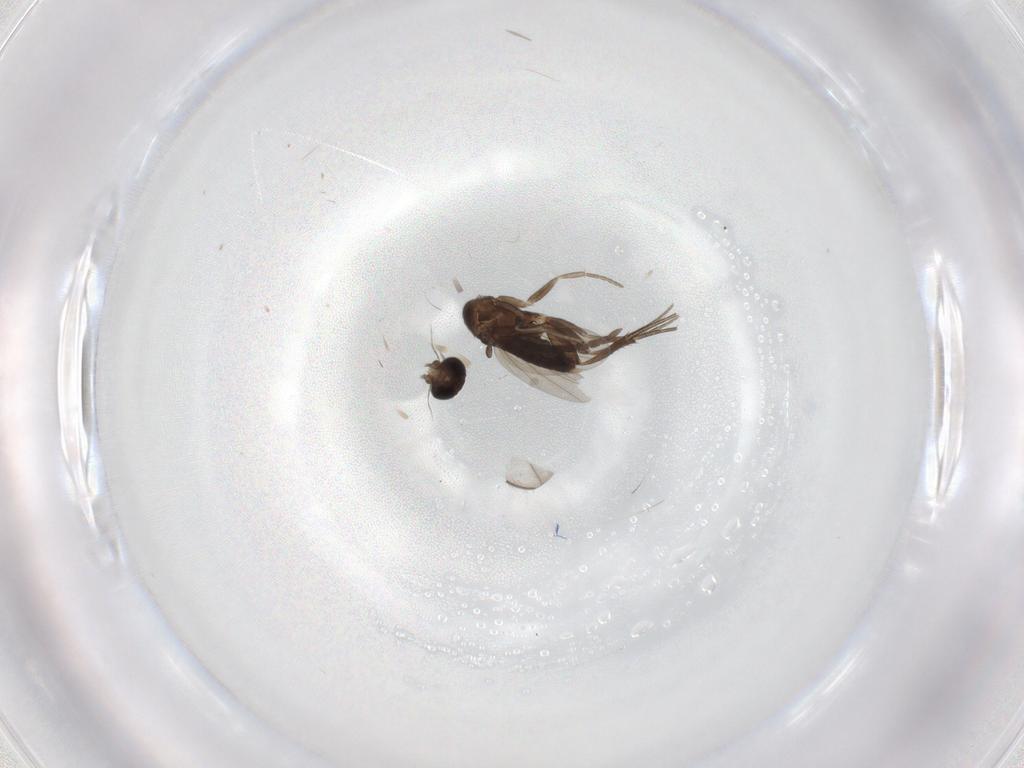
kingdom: Animalia
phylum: Arthropoda
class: Insecta
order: Diptera
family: Phoridae
